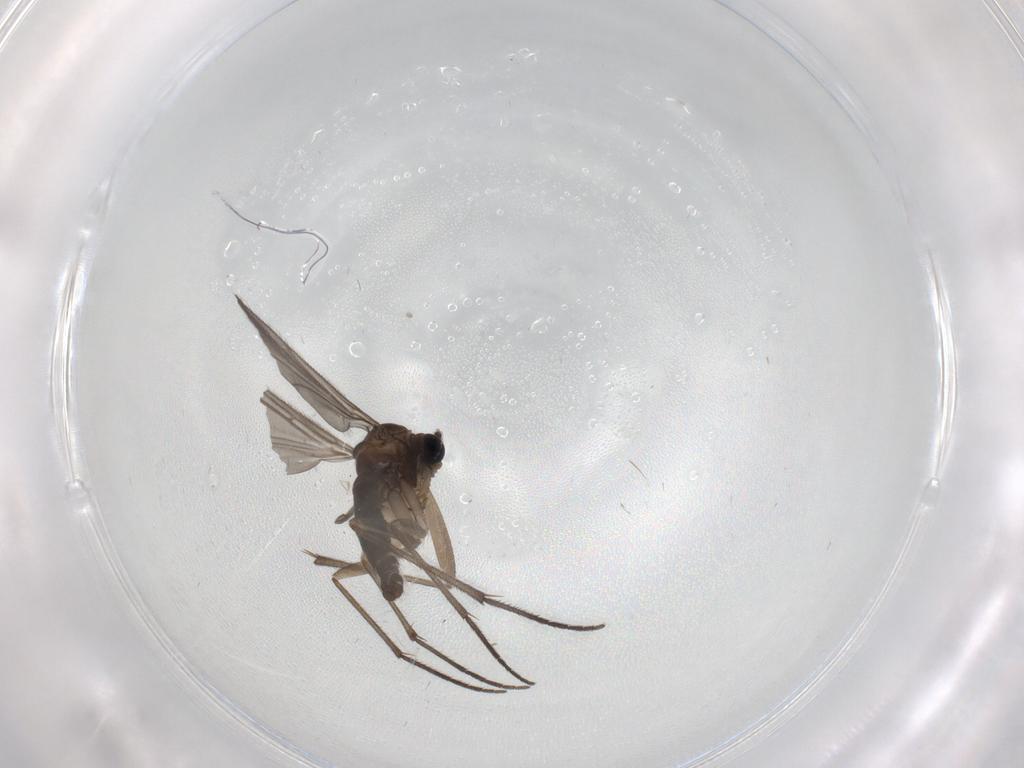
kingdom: Animalia
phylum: Arthropoda
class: Insecta
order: Diptera
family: Sciaridae
